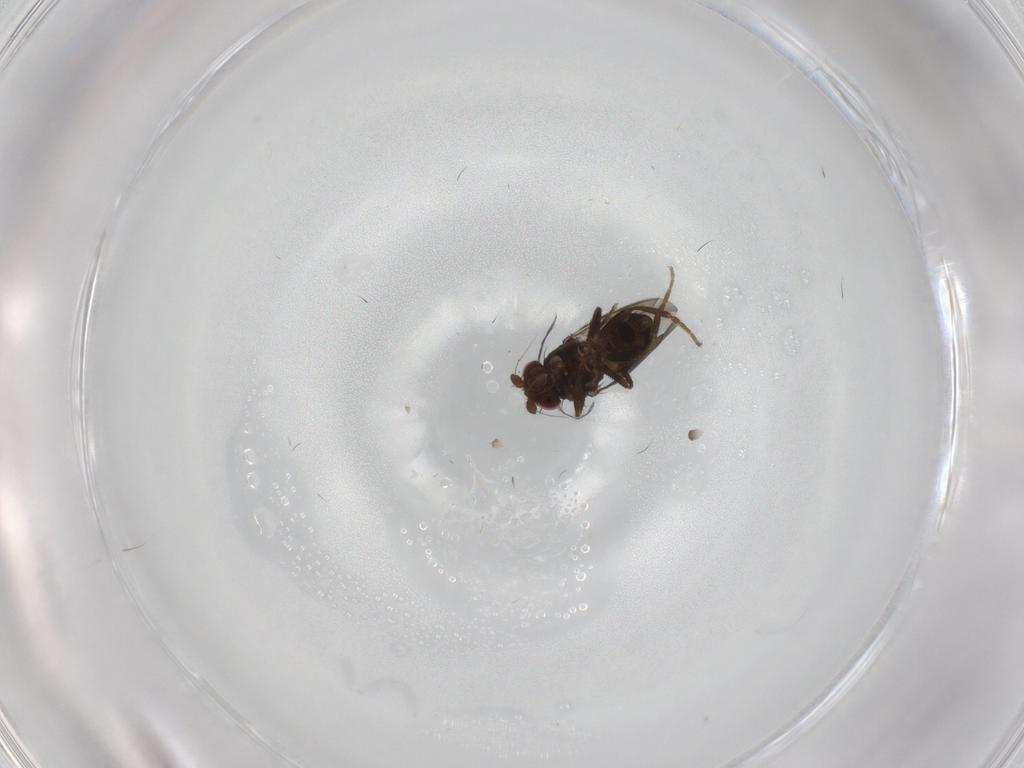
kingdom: Animalia
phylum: Arthropoda
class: Insecta
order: Diptera
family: Sphaeroceridae
